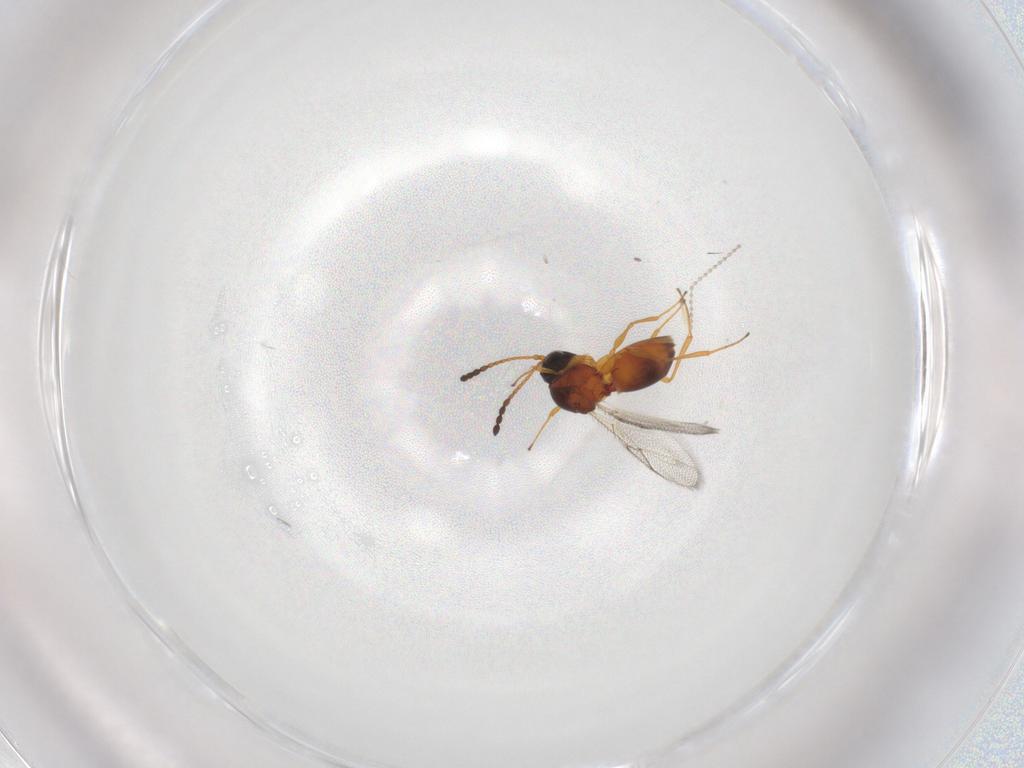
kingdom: Animalia
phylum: Arthropoda
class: Insecta
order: Hymenoptera
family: Figitidae
